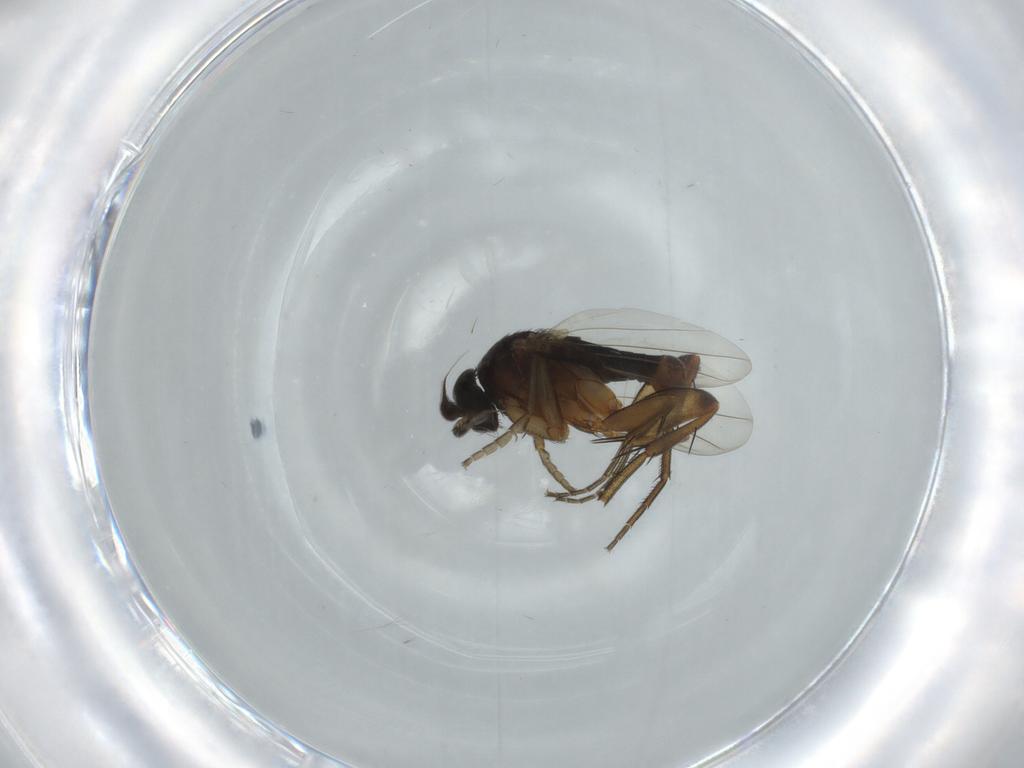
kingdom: Animalia
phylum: Arthropoda
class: Insecta
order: Diptera
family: Phoridae
